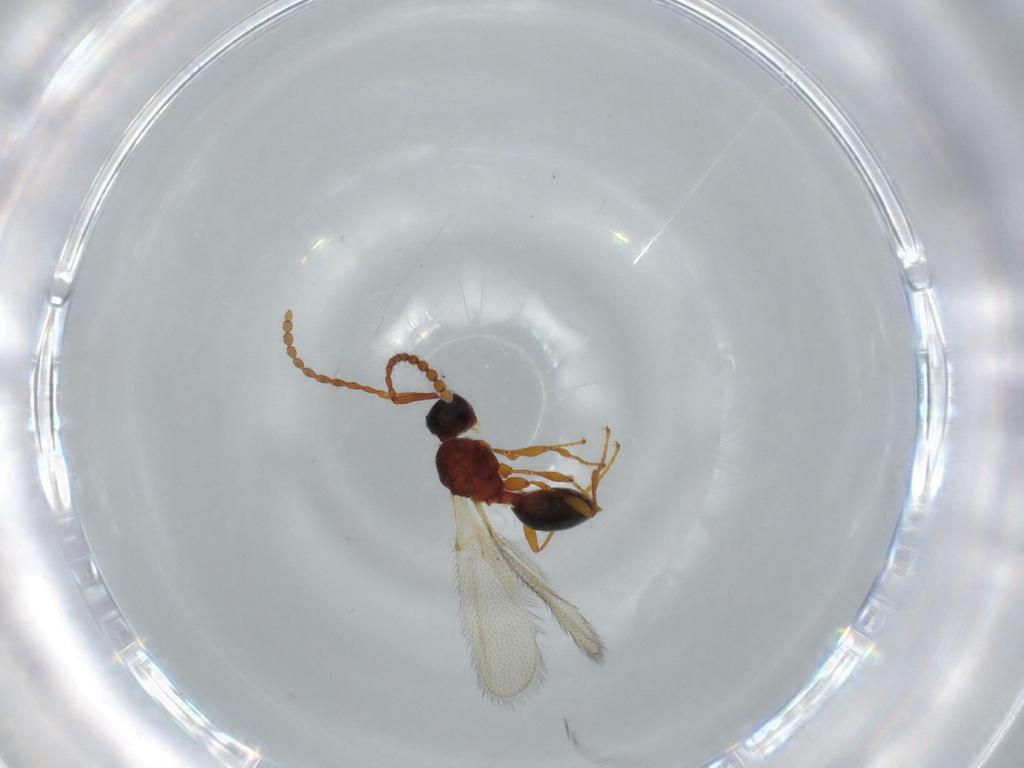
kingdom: Animalia
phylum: Arthropoda
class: Insecta
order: Hymenoptera
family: Diapriidae
